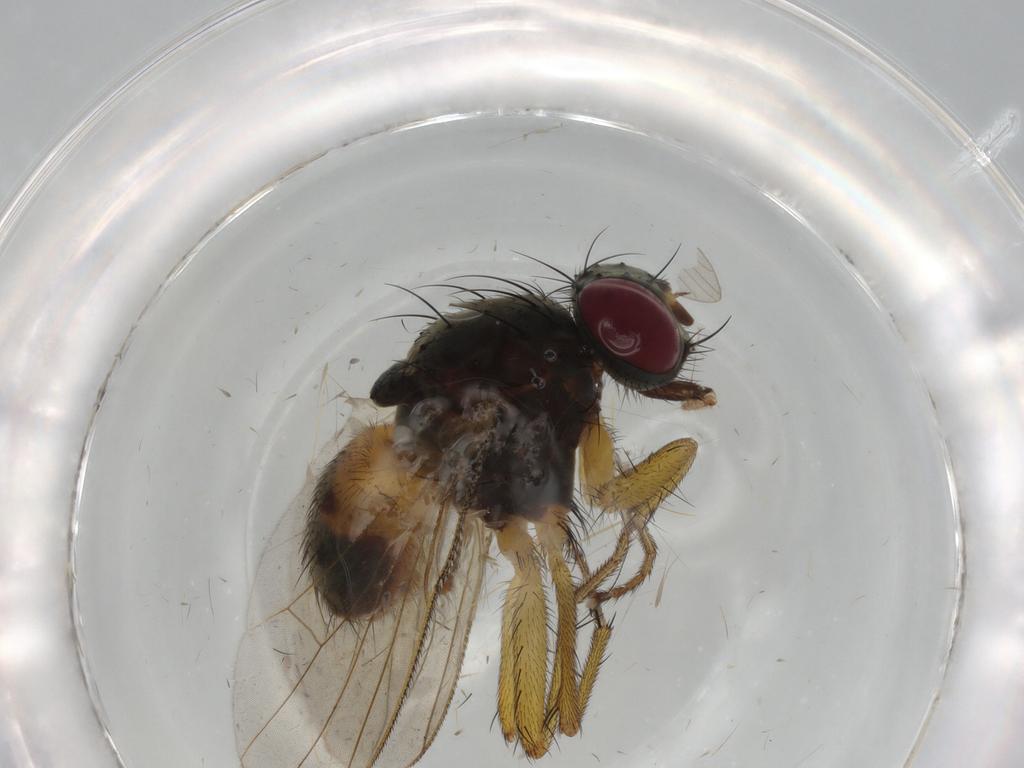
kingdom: Animalia
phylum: Arthropoda
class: Insecta
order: Diptera
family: Muscidae
